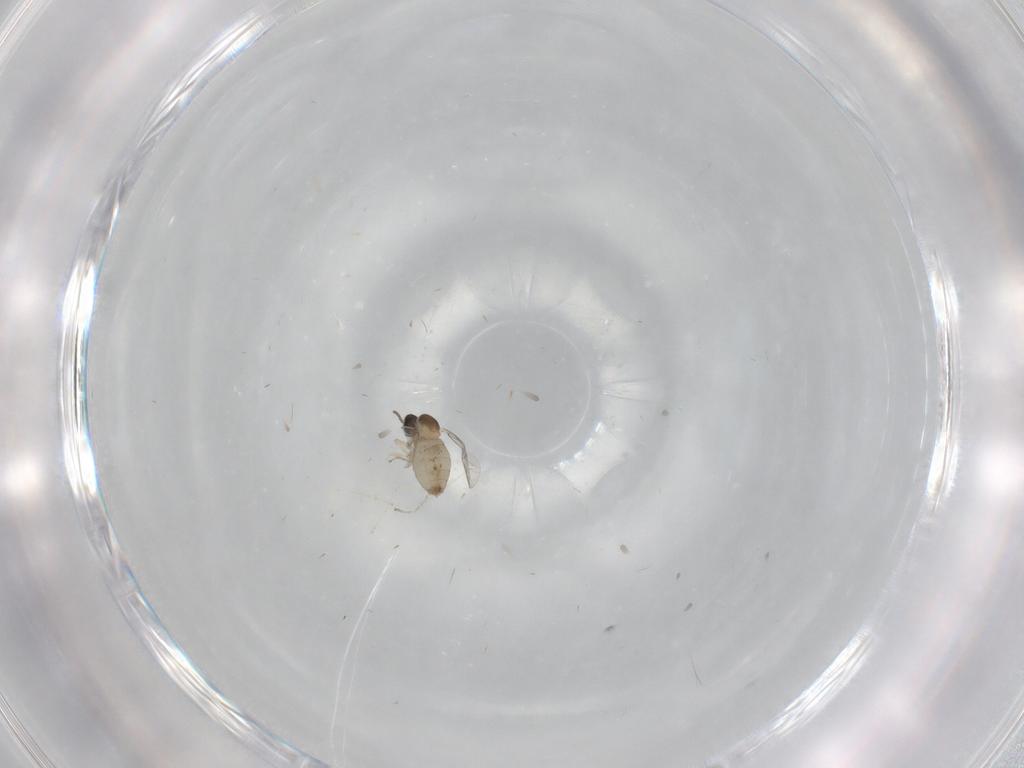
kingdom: Animalia
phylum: Arthropoda
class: Insecta
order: Diptera
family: Cecidomyiidae
